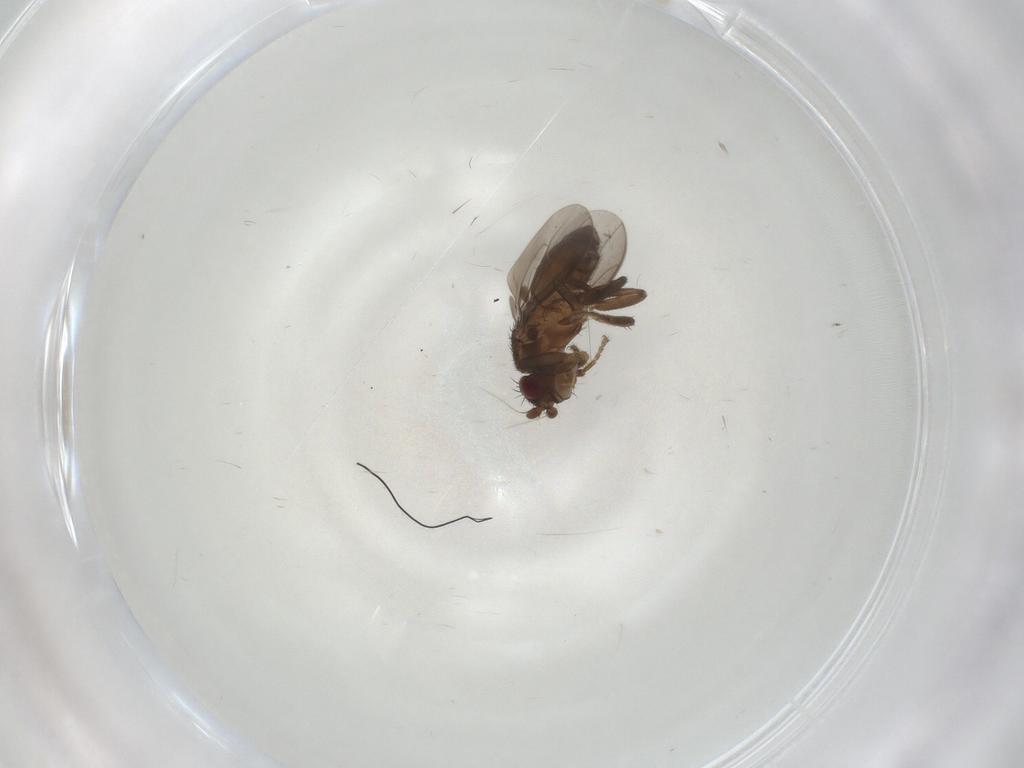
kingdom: Animalia
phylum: Arthropoda
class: Insecta
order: Diptera
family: Sphaeroceridae
